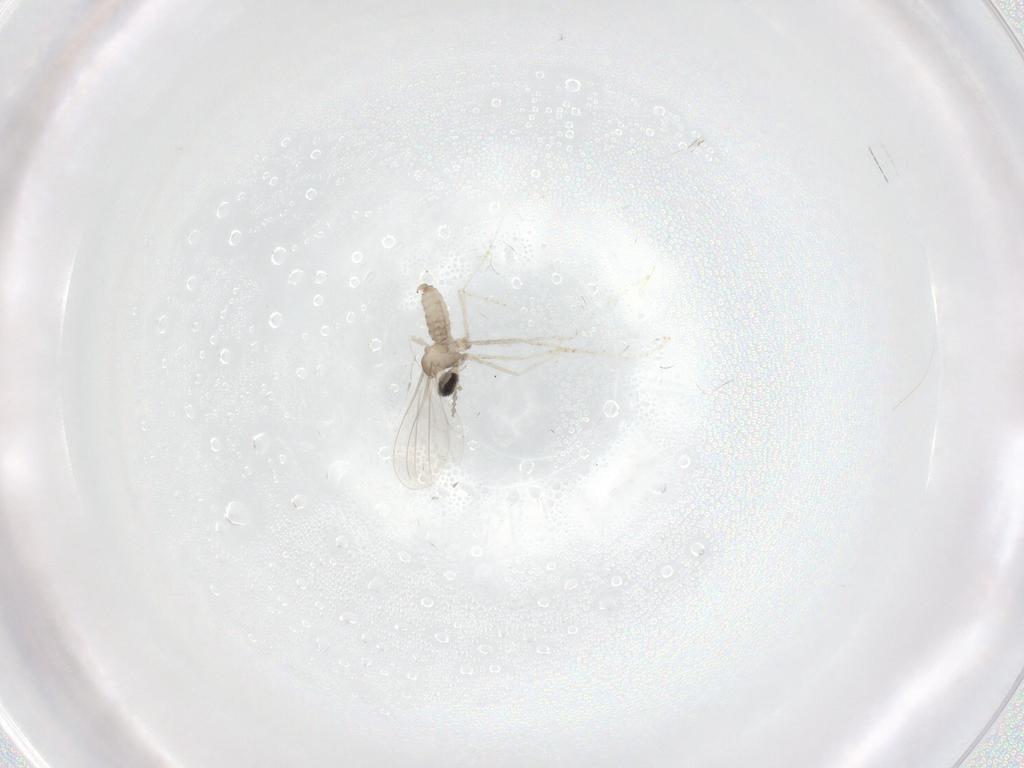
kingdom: Animalia
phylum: Arthropoda
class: Insecta
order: Diptera
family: Cecidomyiidae
